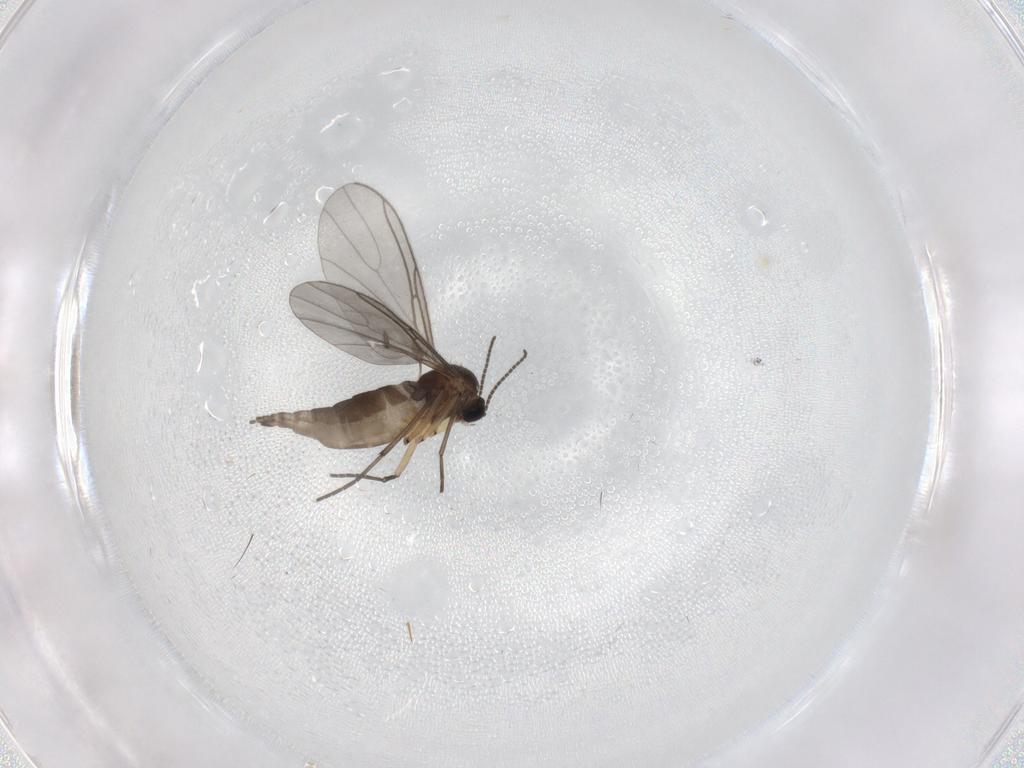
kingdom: Animalia
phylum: Arthropoda
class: Insecta
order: Diptera
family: Sciaridae
